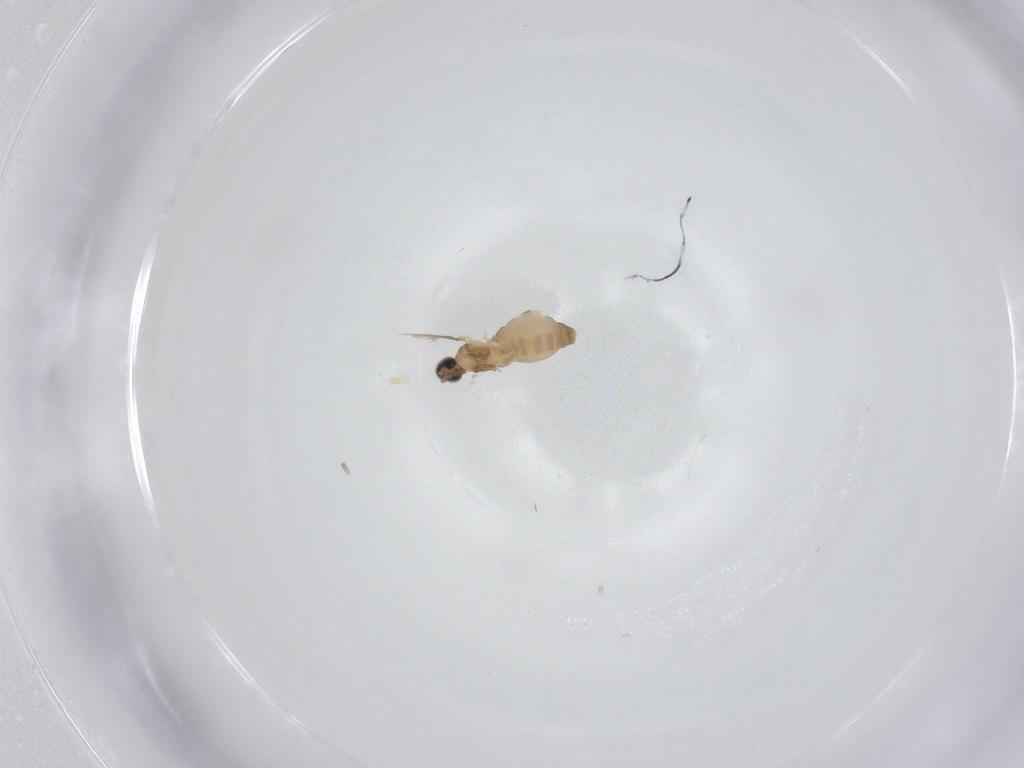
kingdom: Animalia
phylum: Arthropoda
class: Insecta
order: Diptera
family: Cecidomyiidae
